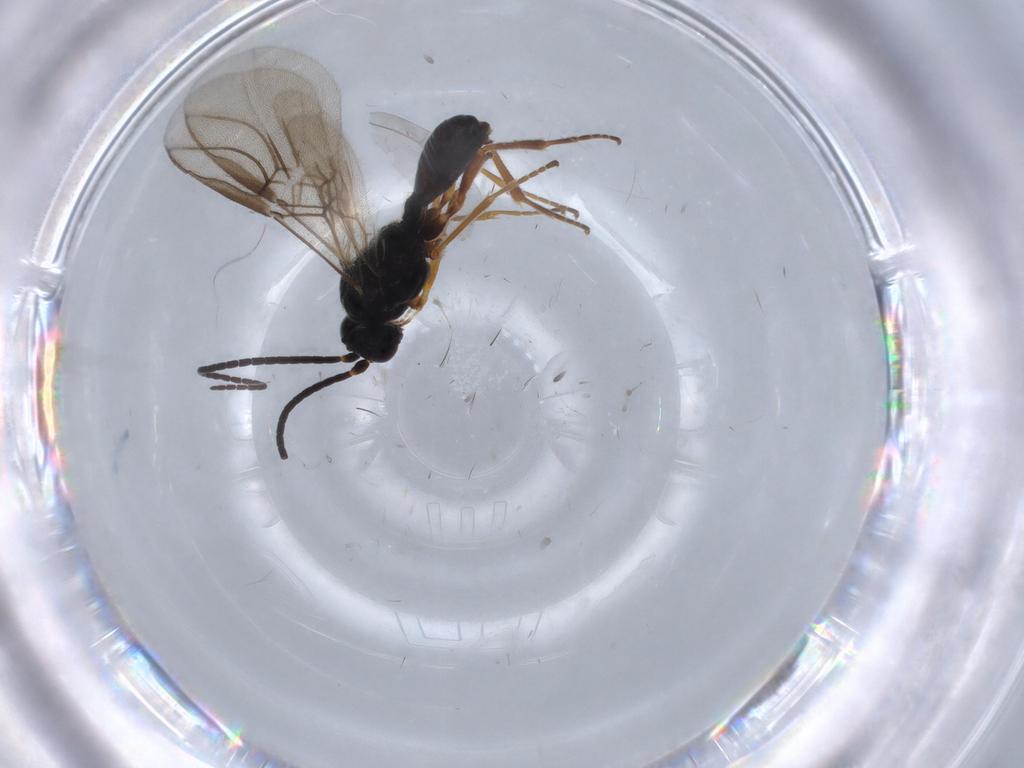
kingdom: Animalia
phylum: Arthropoda
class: Insecta
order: Hymenoptera
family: Braconidae
